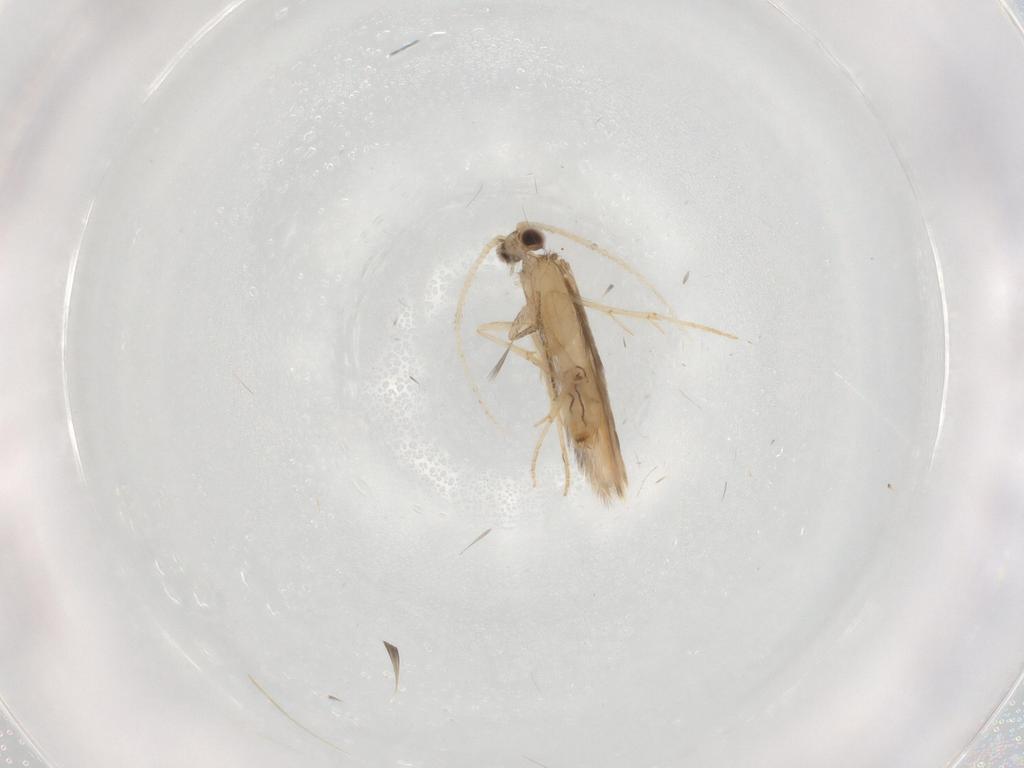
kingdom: Animalia
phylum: Arthropoda
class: Insecta
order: Trichoptera
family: Hydroptilidae
